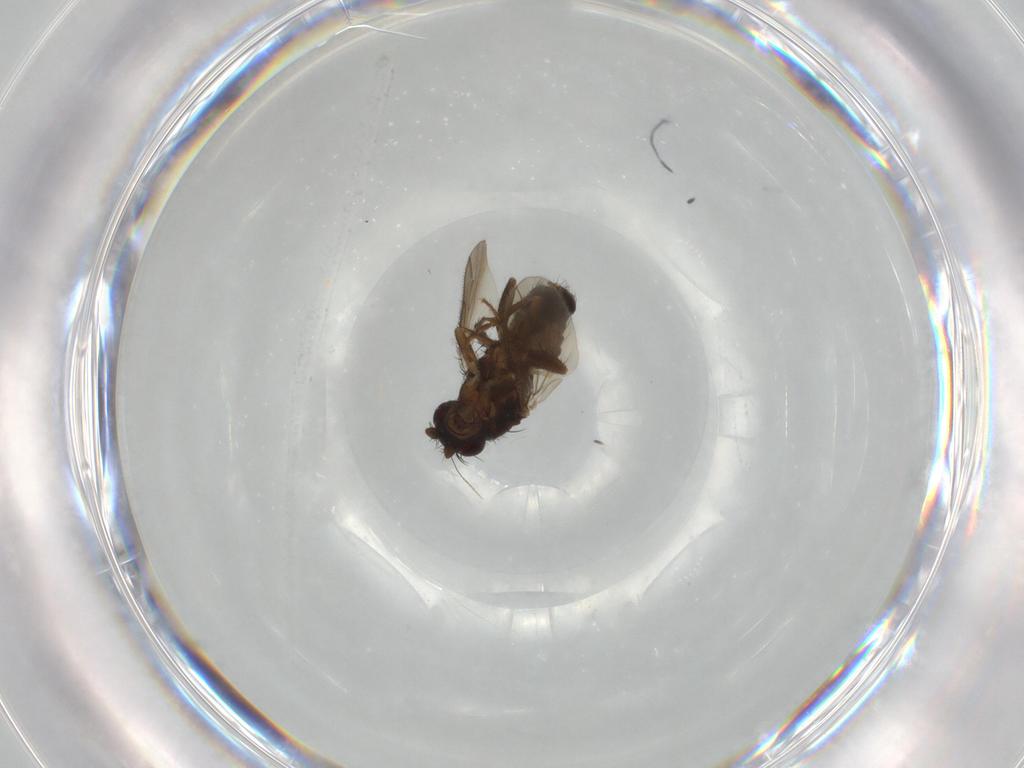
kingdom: Animalia
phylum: Arthropoda
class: Insecta
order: Diptera
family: Sphaeroceridae
